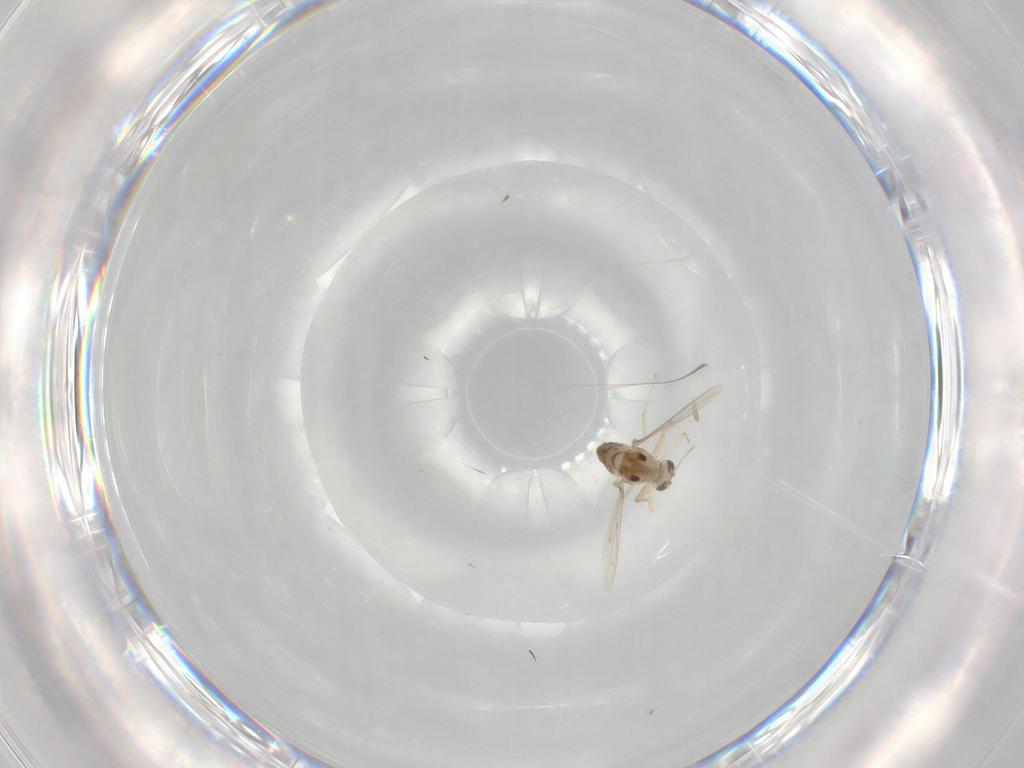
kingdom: Animalia
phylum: Arthropoda
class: Insecta
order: Diptera
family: Chironomidae
